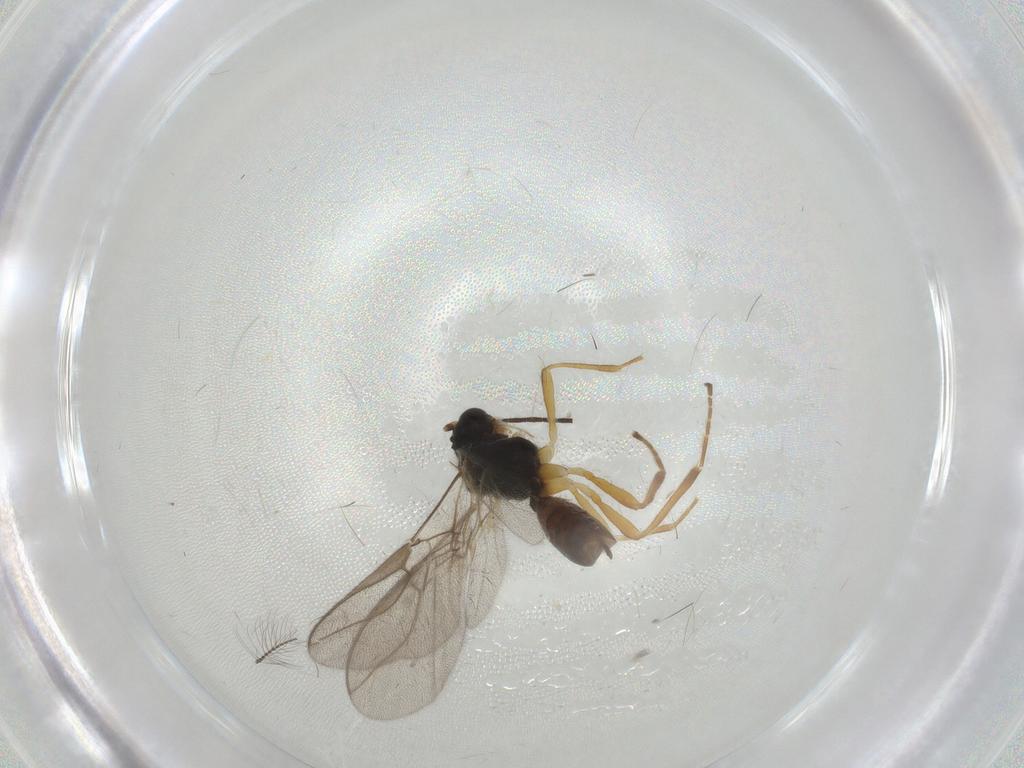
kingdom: Animalia
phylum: Arthropoda
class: Insecta
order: Hymenoptera
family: Braconidae
